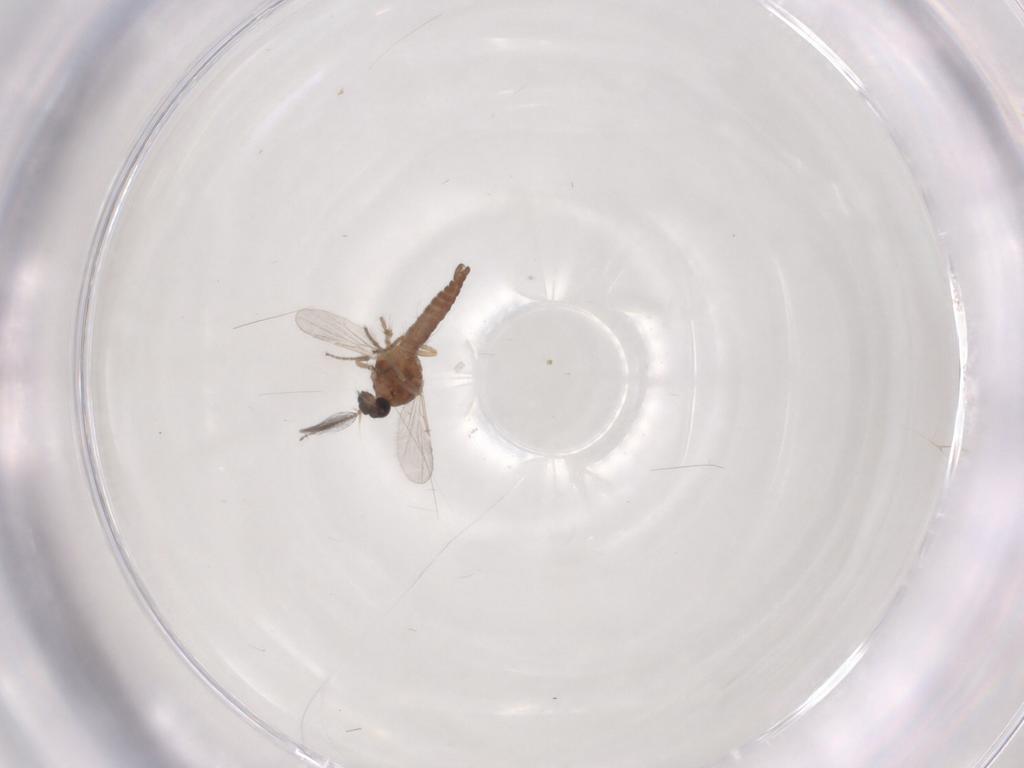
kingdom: Animalia
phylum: Arthropoda
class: Insecta
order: Diptera
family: Ceratopogonidae
